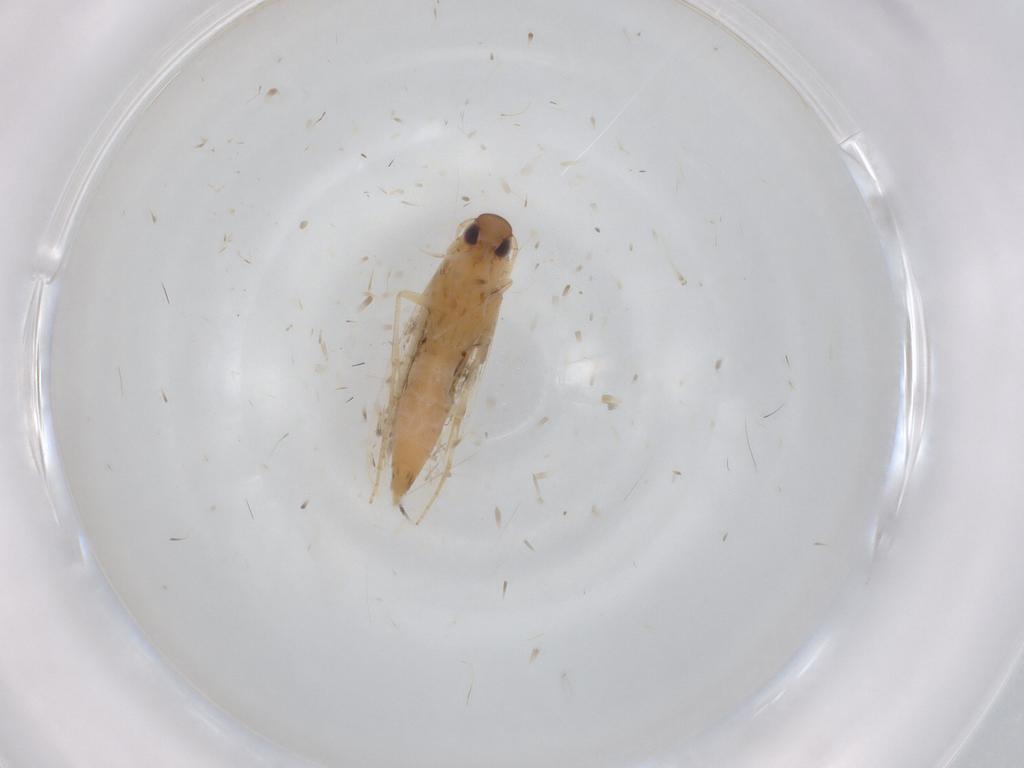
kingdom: Animalia
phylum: Arthropoda
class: Insecta
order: Lepidoptera
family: Crambidae
